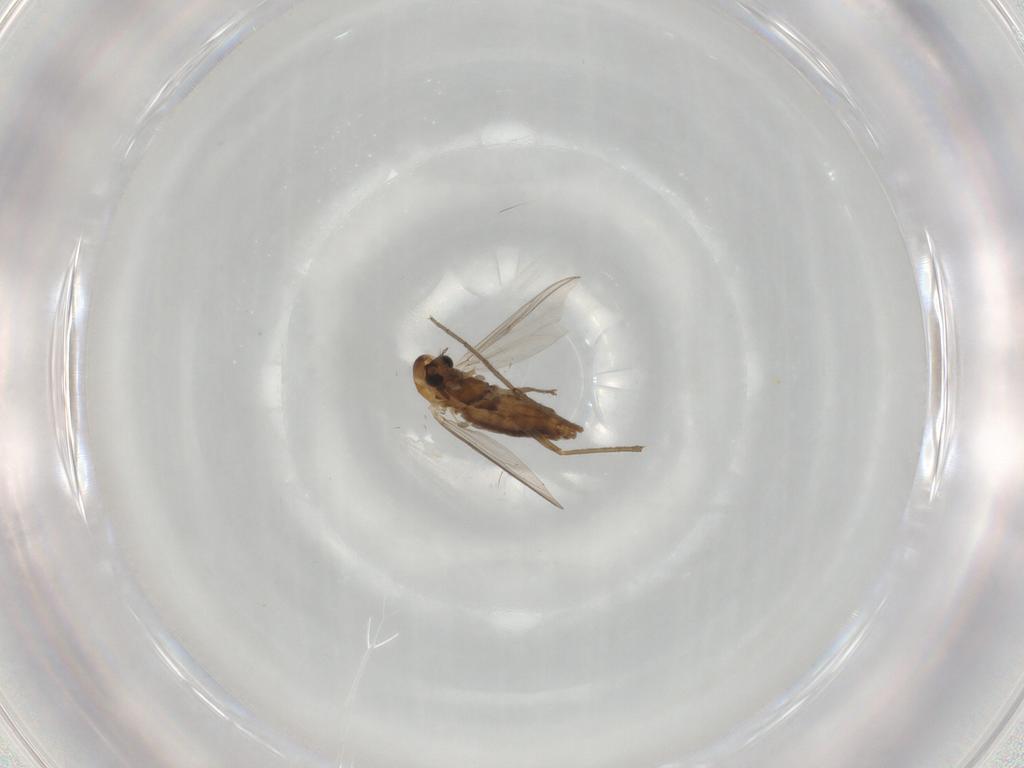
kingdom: Animalia
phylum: Arthropoda
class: Insecta
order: Diptera
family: Chironomidae
